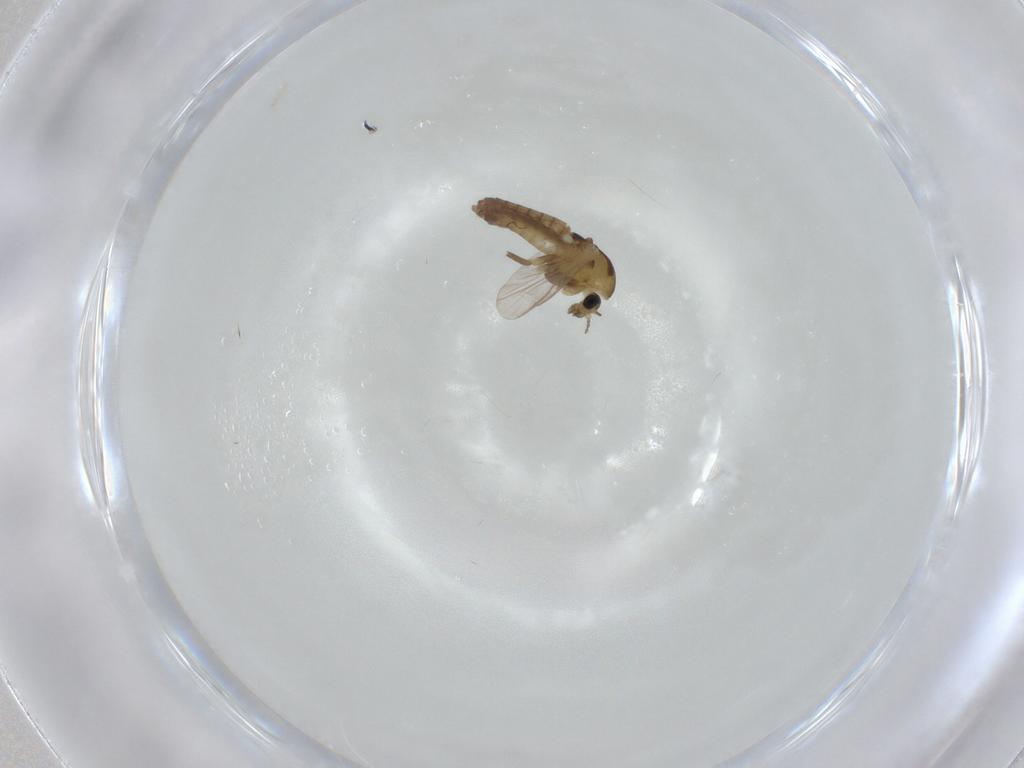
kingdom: Animalia
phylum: Arthropoda
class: Insecta
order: Diptera
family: Chironomidae
